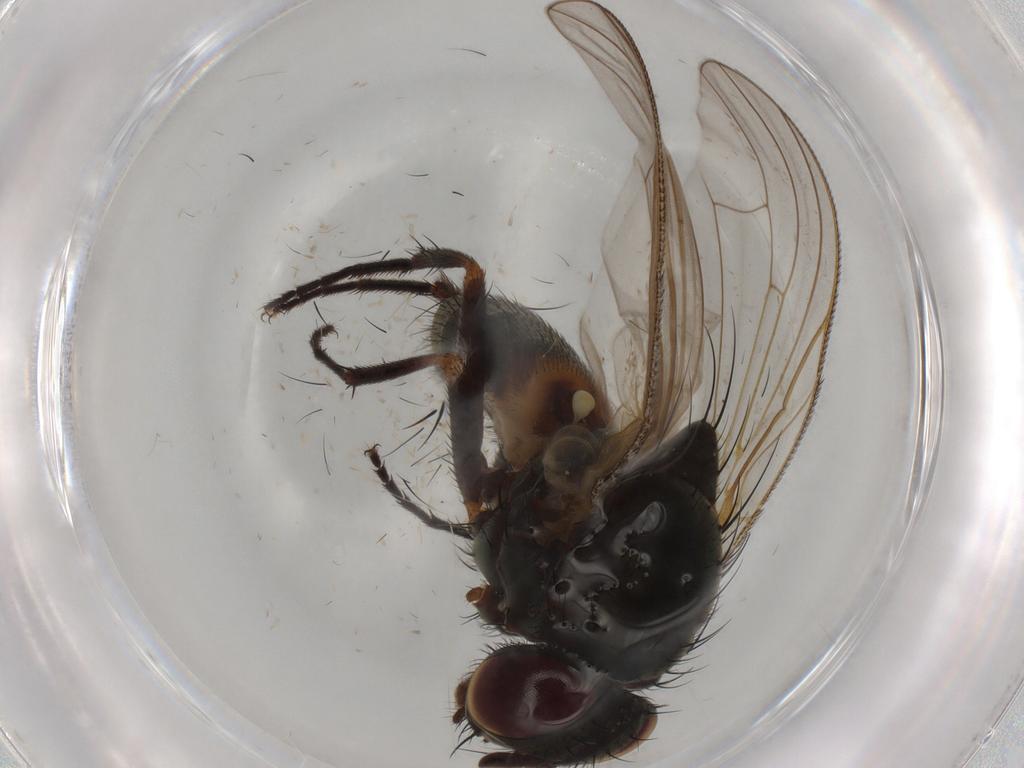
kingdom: Animalia
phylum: Arthropoda
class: Insecta
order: Diptera
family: Fannia
